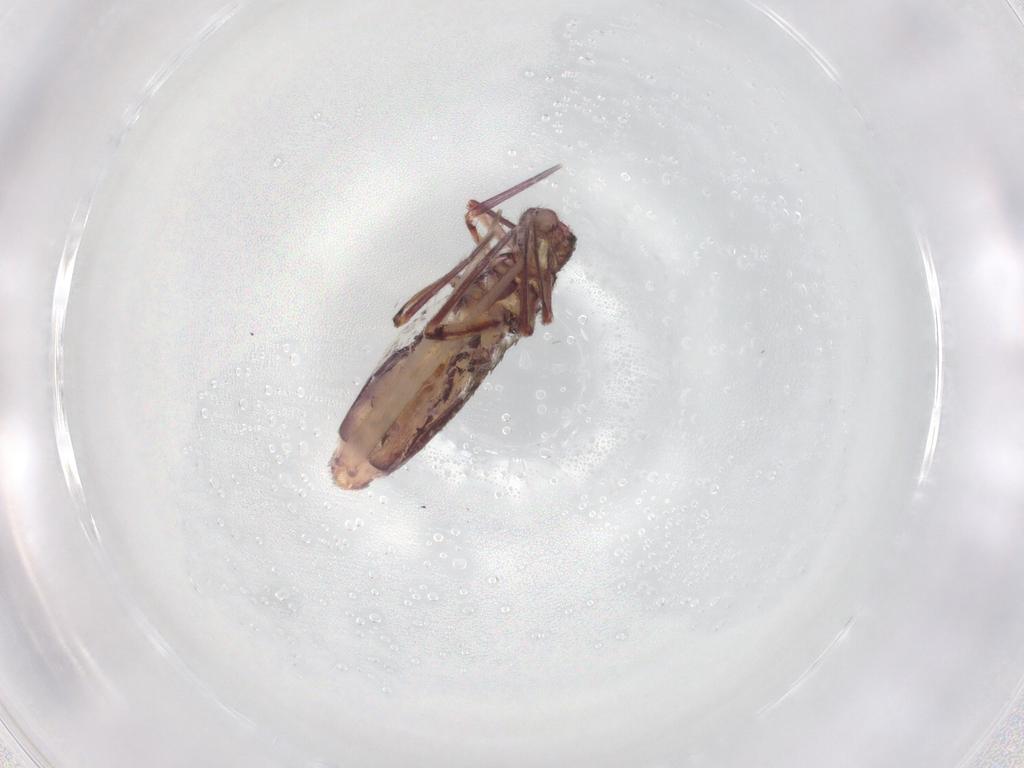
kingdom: Animalia
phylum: Arthropoda
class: Collembola
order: Entomobryomorpha
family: Entomobryidae
